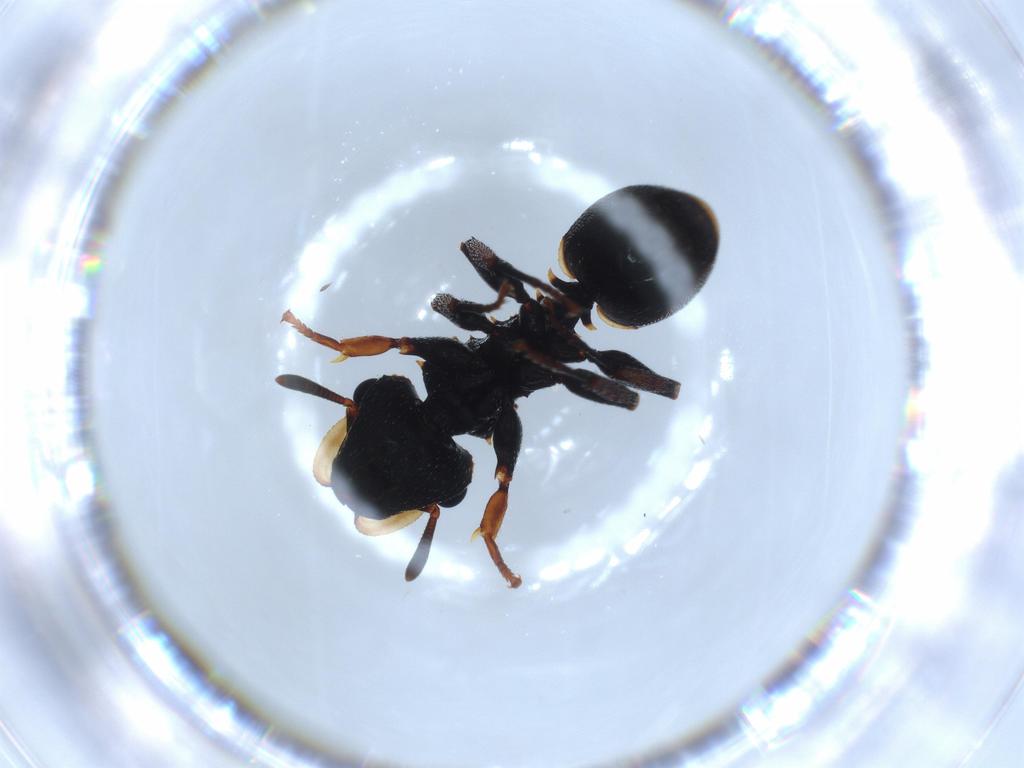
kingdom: Animalia
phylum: Arthropoda
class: Insecta
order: Hymenoptera
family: Formicidae
